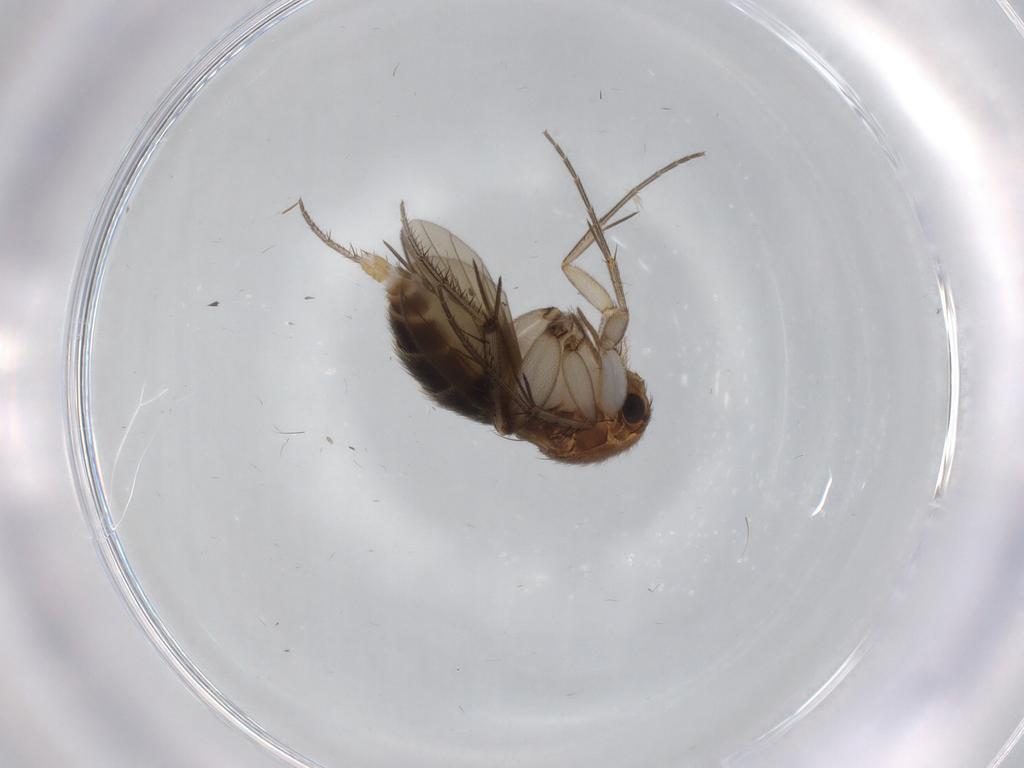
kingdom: Animalia
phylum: Arthropoda
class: Insecta
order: Diptera
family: Mycetophilidae
